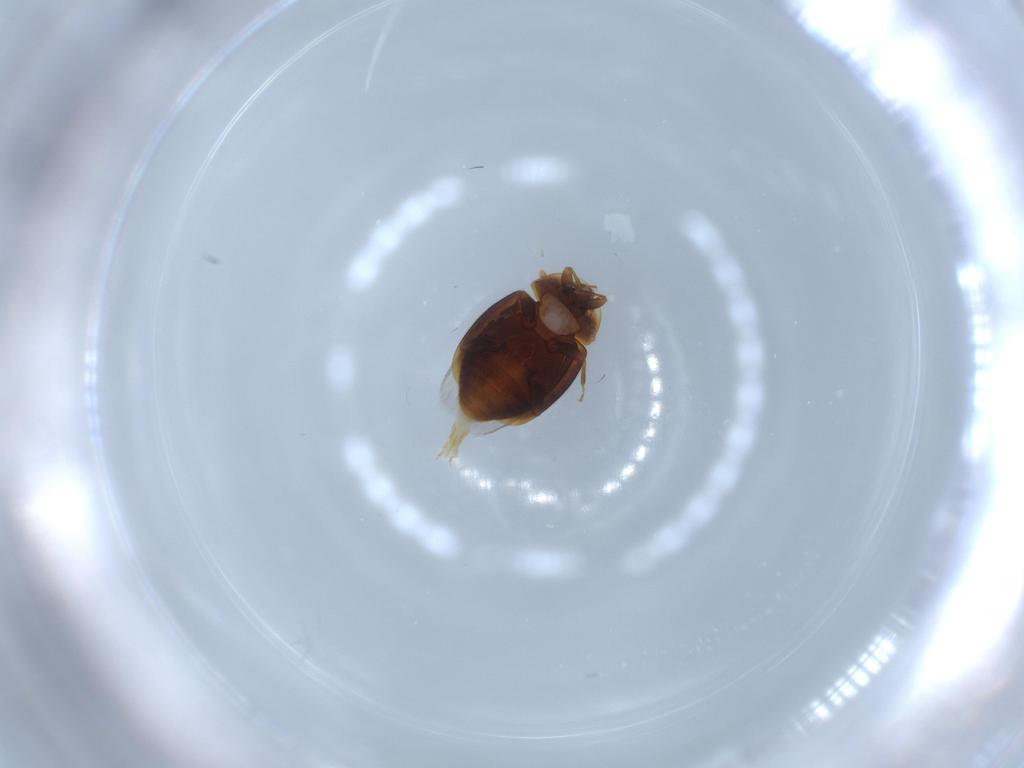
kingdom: Animalia
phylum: Arthropoda
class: Insecta
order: Coleoptera
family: Corylophidae
